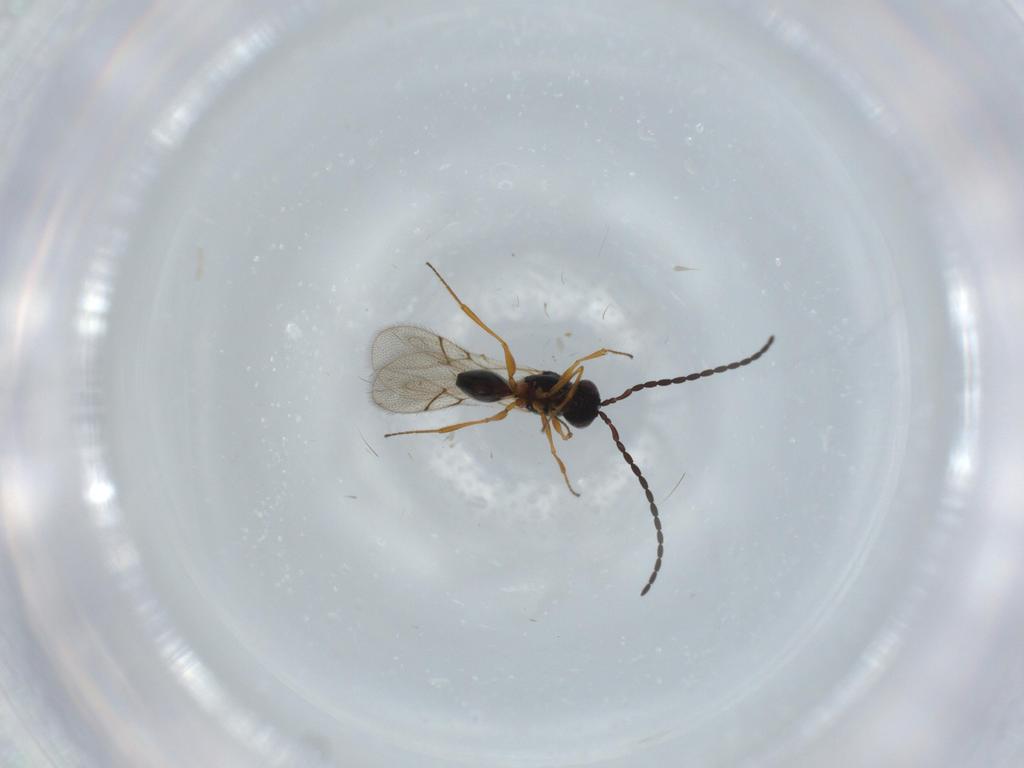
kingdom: Animalia
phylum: Arthropoda
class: Insecta
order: Hymenoptera
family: Figitidae
